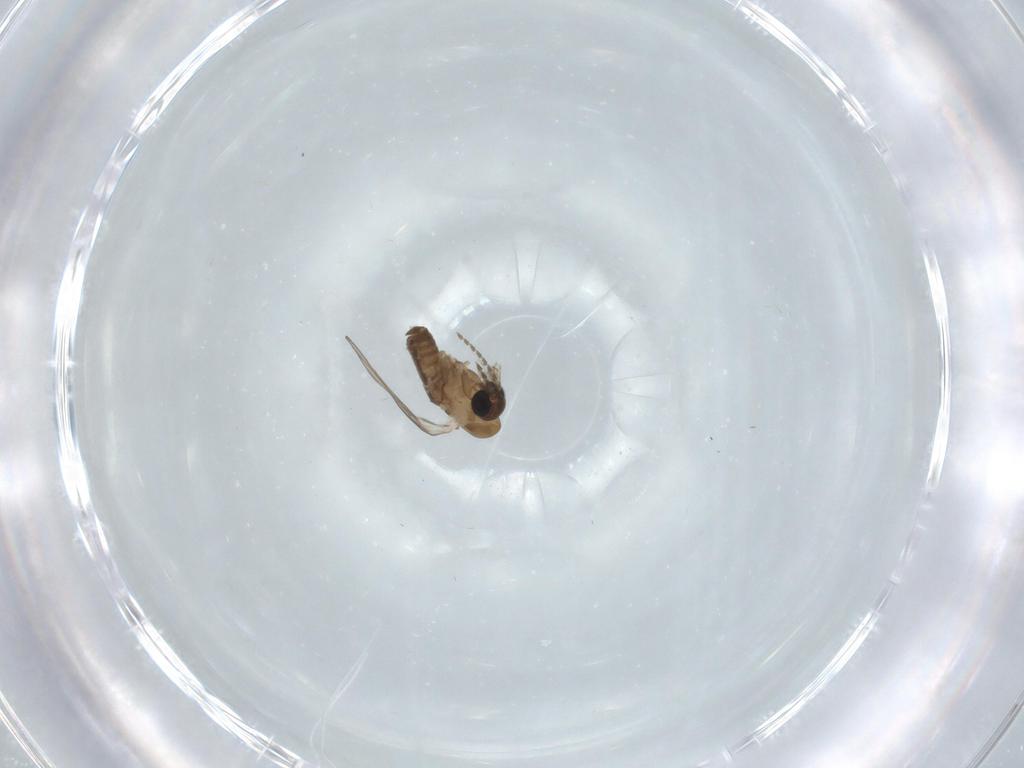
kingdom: Animalia
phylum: Arthropoda
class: Insecta
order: Diptera
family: Psychodidae
